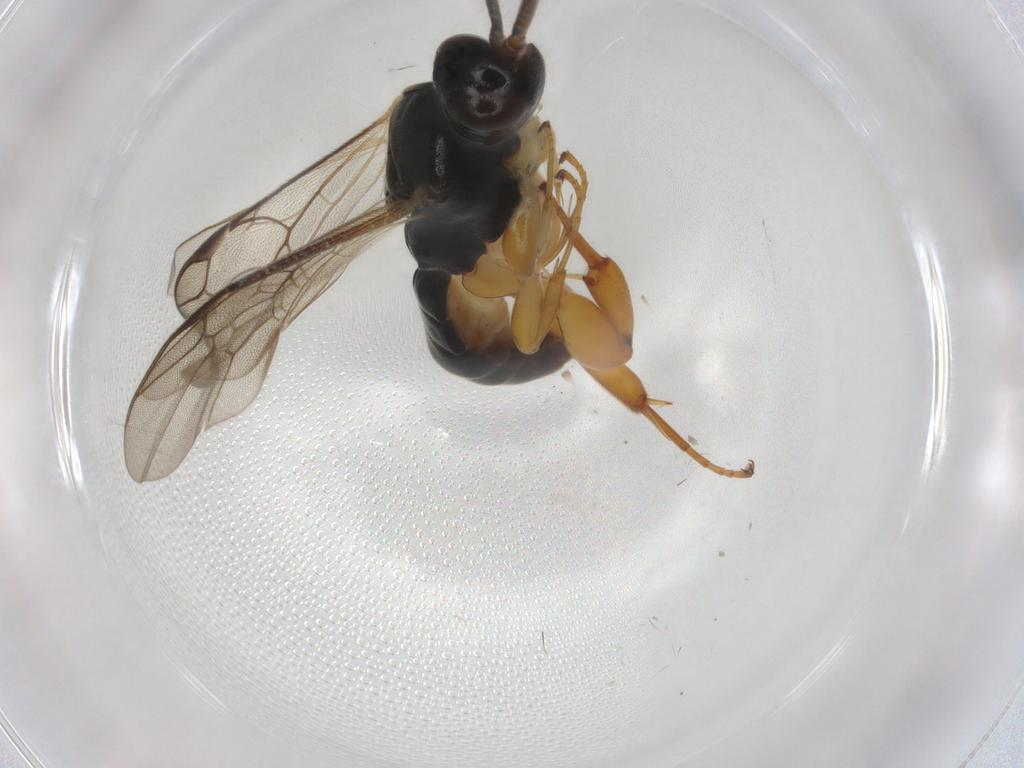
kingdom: Animalia
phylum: Arthropoda
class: Insecta
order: Hymenoptera
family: Ichneumonidae
